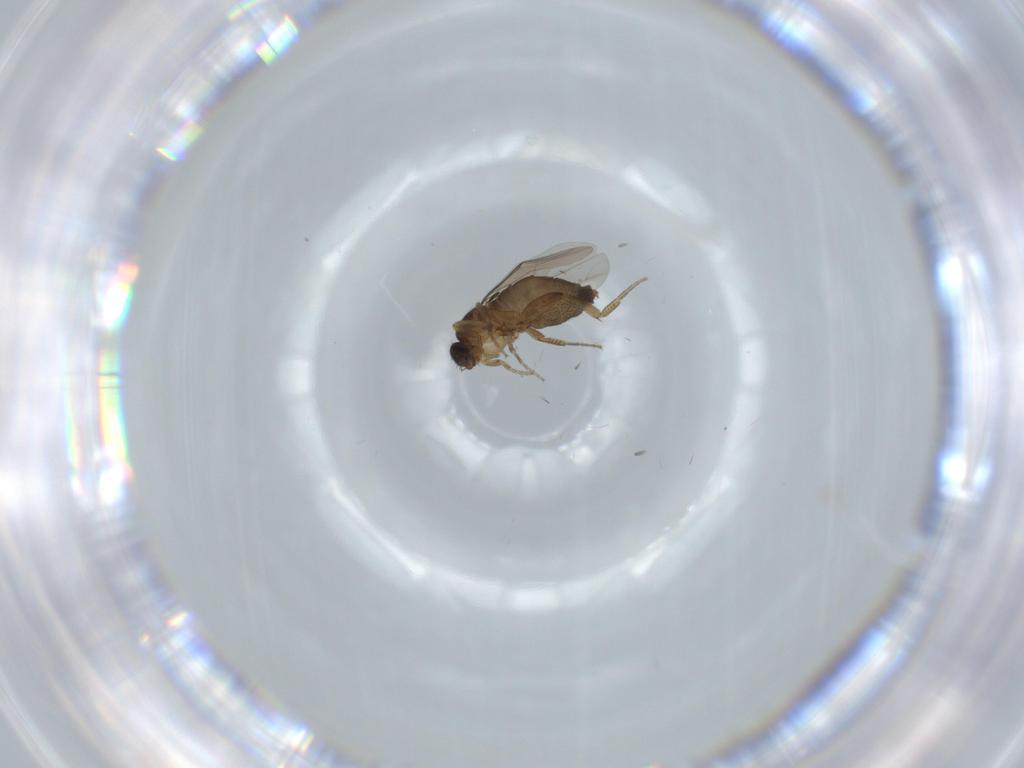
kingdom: Animalia
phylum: Arthropoda
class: Insecta
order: Diptera
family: Phoridae
